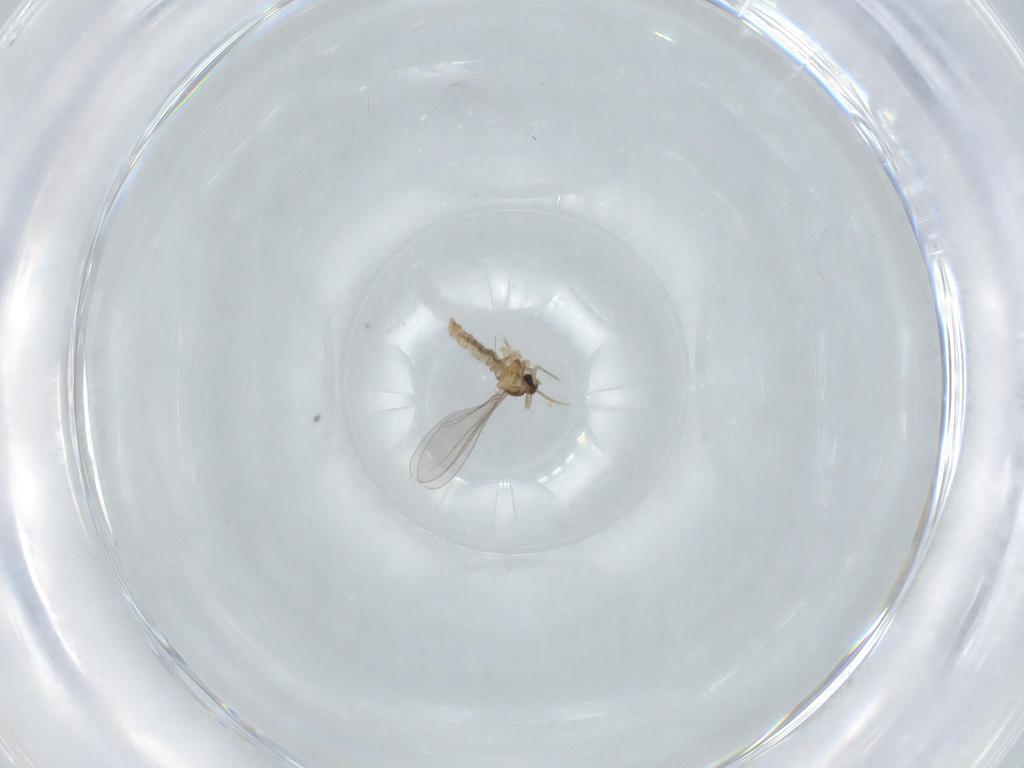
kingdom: Animalia
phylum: Arthropoda
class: Insecta
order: Diptera
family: Cecidomyiidae
